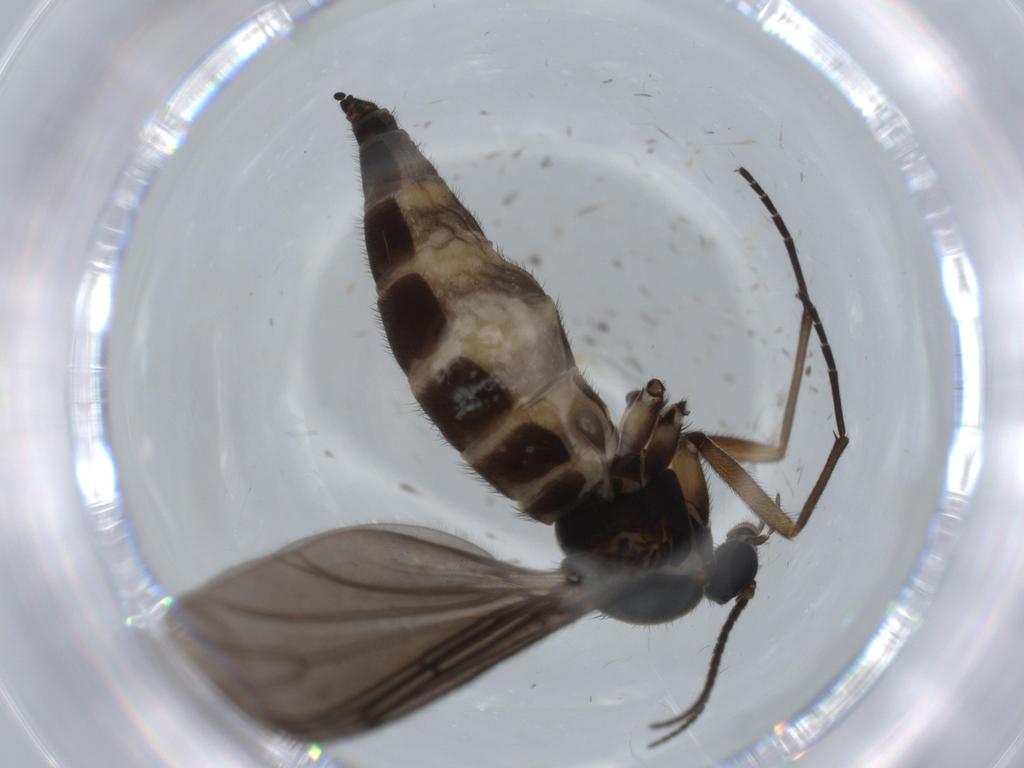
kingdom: Animalia
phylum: Arthropoda
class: Insecta
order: Diptera
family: Sciaridae
